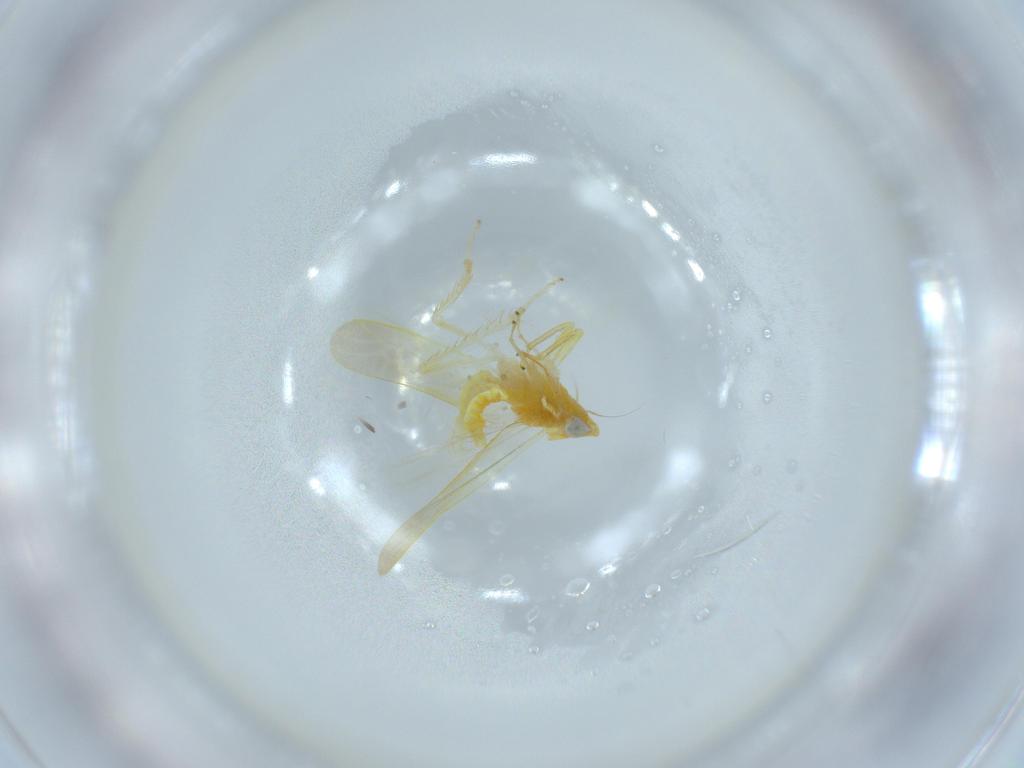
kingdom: Animalia
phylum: Arthropoda
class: Insecta
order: Hemiptera
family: Cicadellidae
